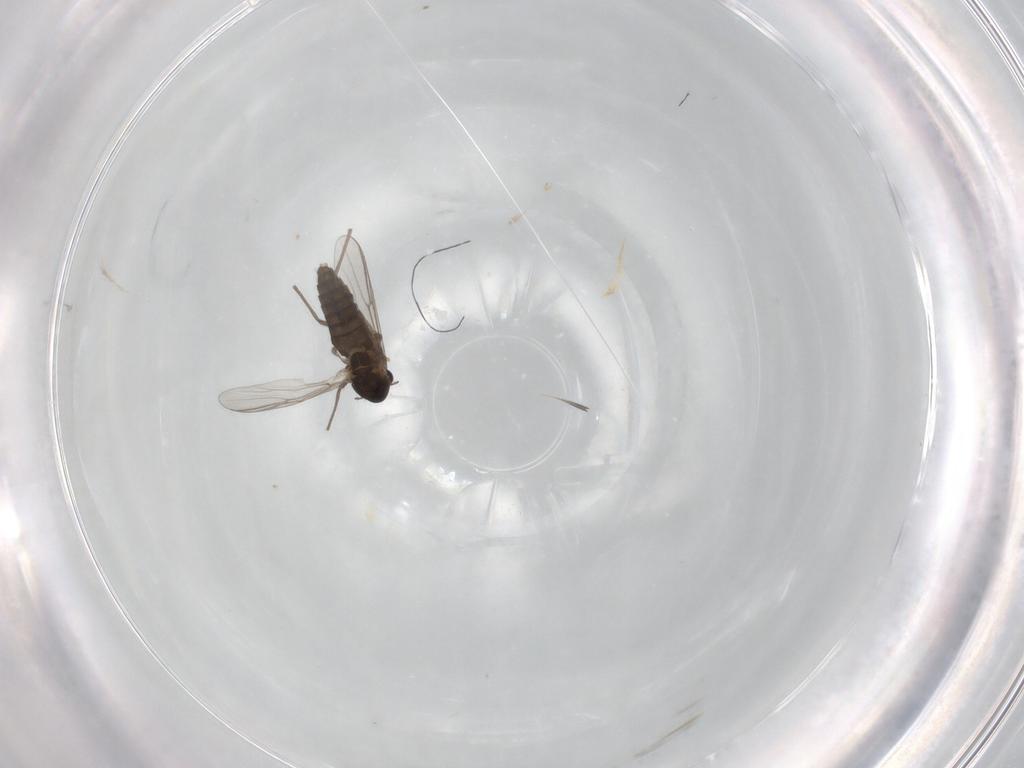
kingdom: Animalia
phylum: Arthropoda
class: Insecta
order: Diptera
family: Chironomidae
